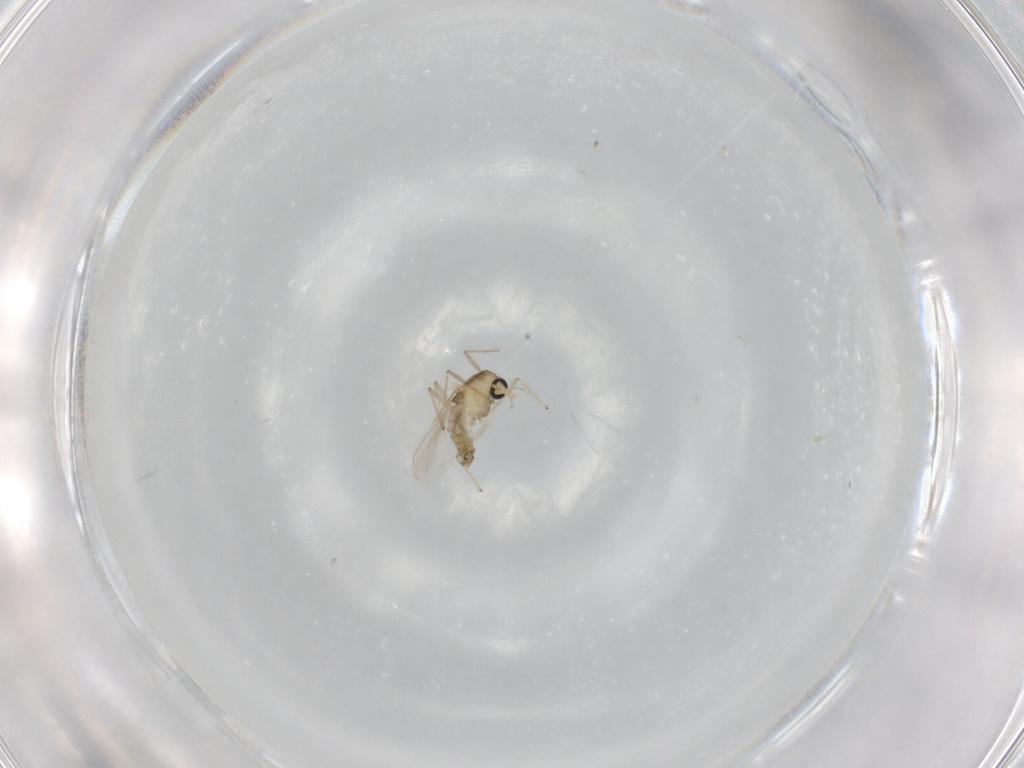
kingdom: Animalia
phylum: Arthropoda
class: Insecta
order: Diptera
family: Chironomidae
